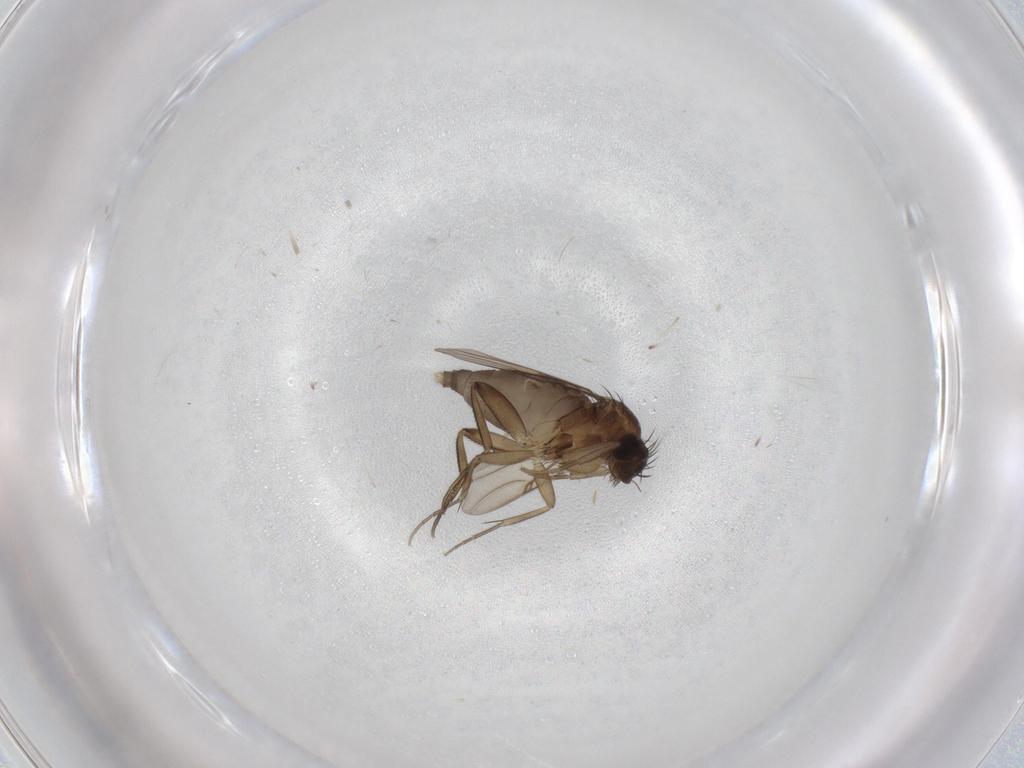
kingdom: Animalia
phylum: Arthropoda
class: Insecta
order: Diptera
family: Phoridae
